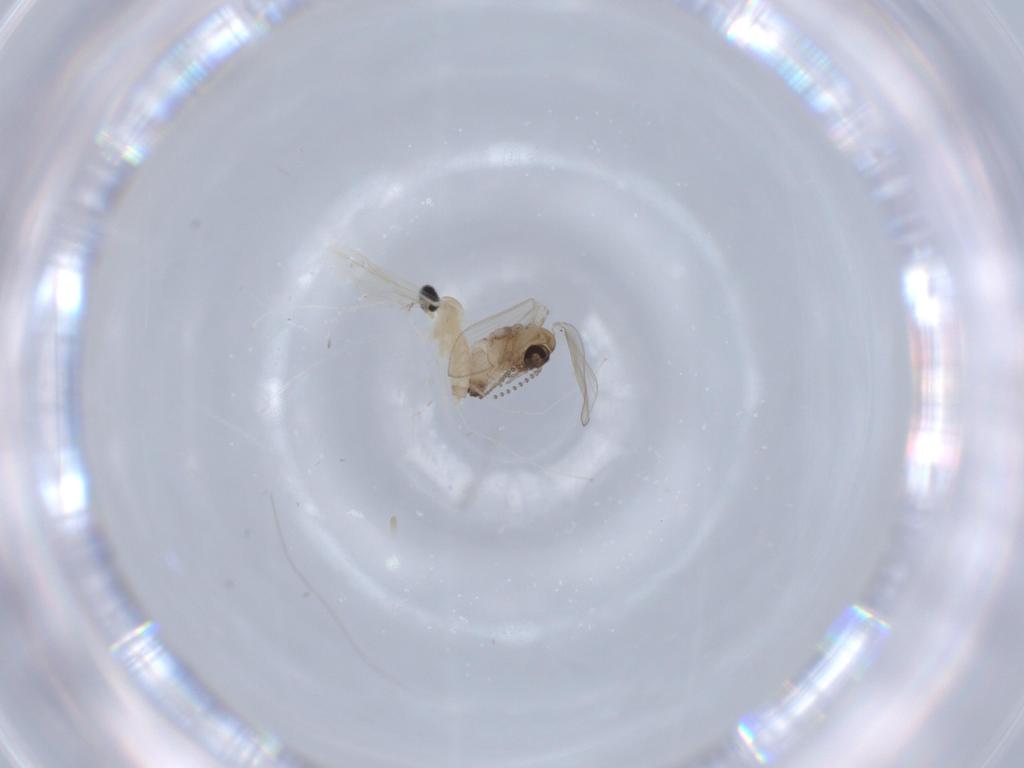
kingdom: Animalia
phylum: Arthropoda
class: Insecta
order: Diptera
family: Psychodidae
